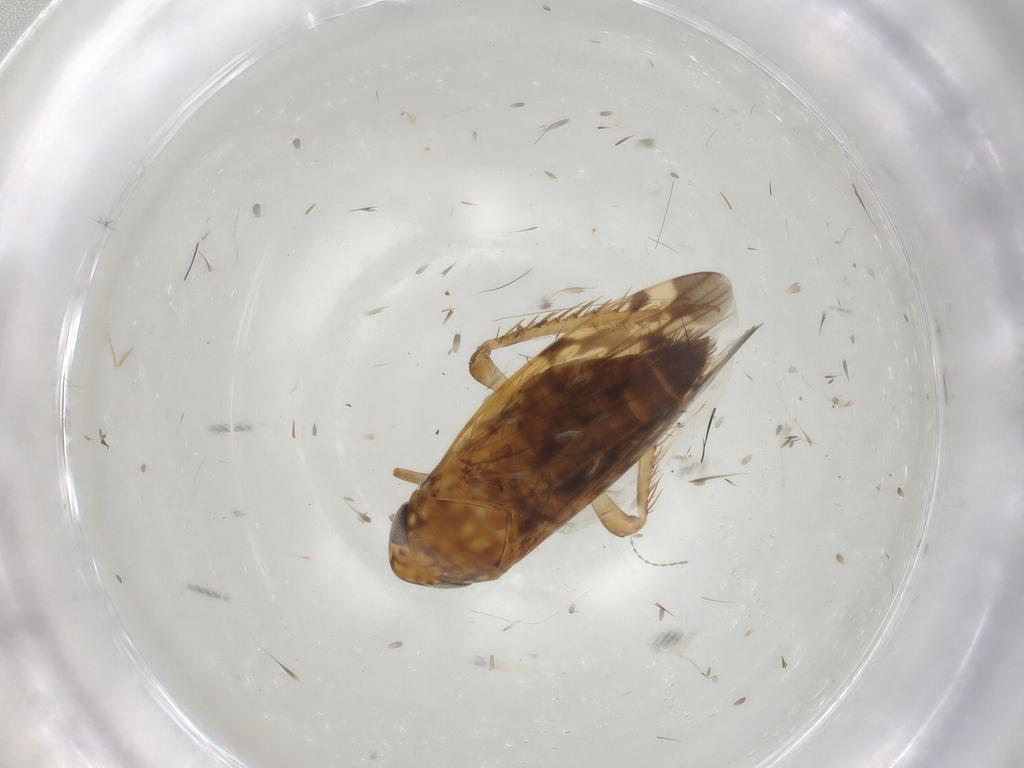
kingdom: Animalia
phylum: Arthropoda
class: Insecta
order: Hemiptera
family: Cicadellidae
